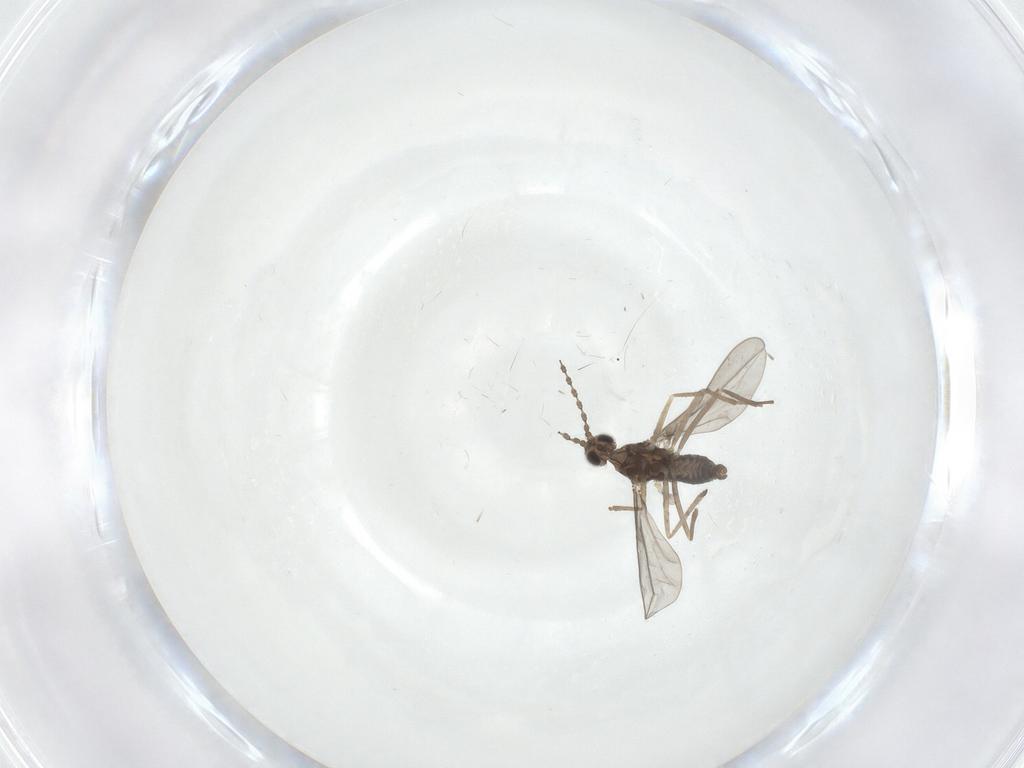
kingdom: Animalia
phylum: Arthropoda
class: Insecta
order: Diptera
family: Cecidomyiidae
